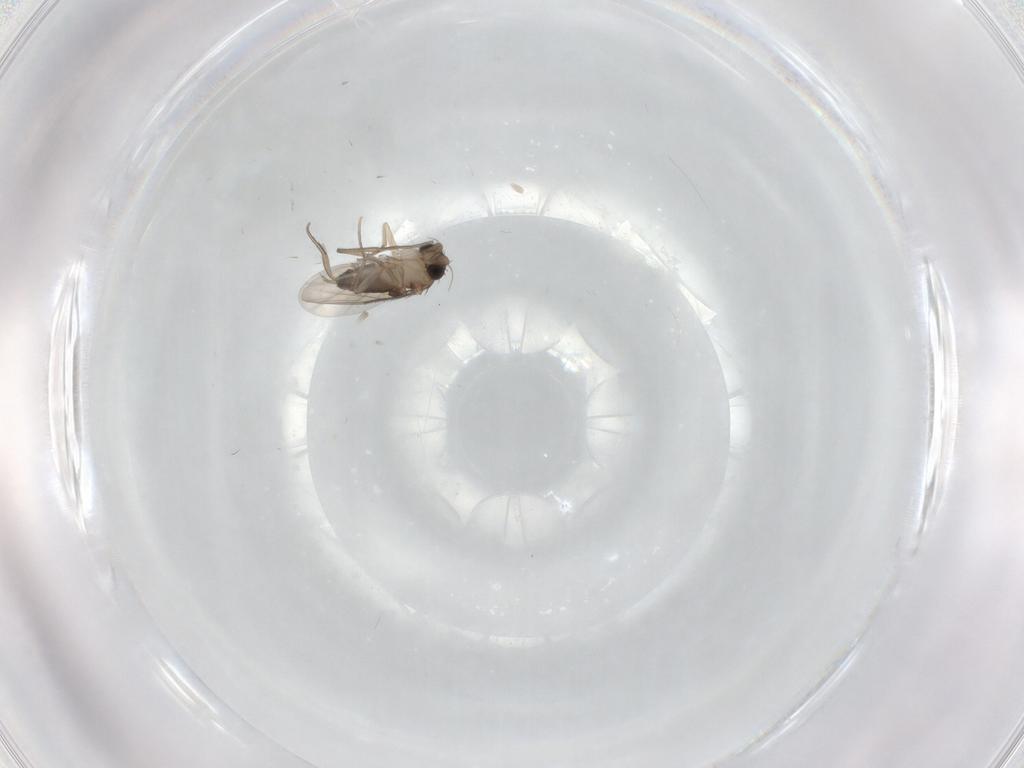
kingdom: Animalia
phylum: Arthropoda
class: Insecta
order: Diptera
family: Phoridae
